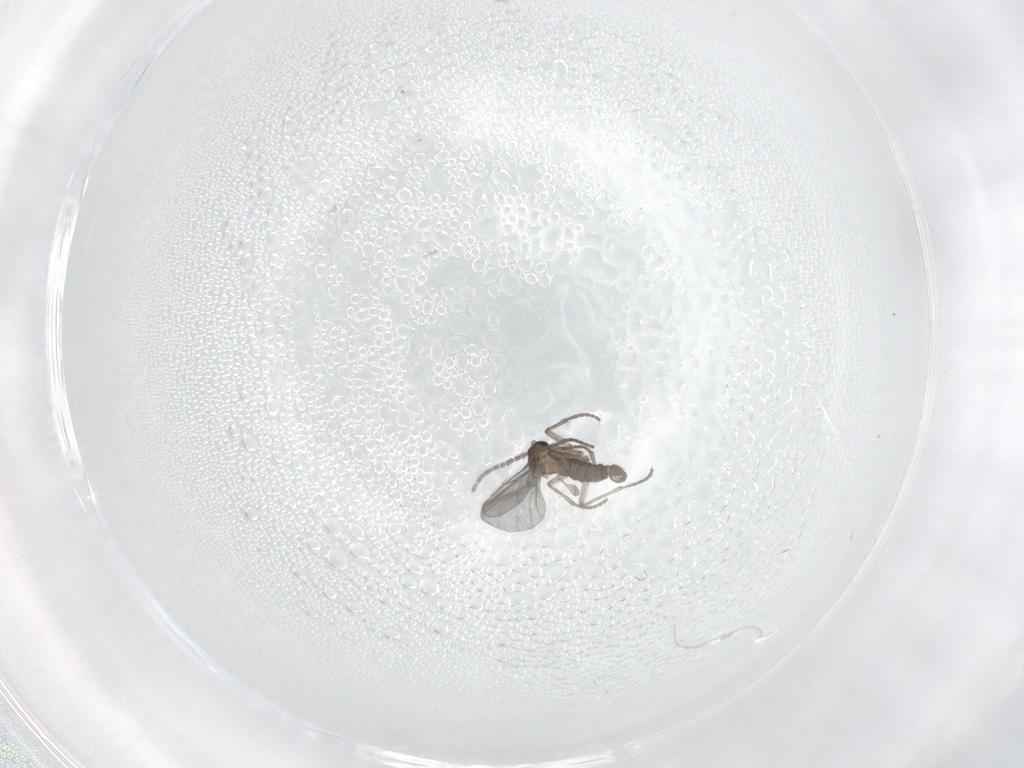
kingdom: Animalia
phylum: Arthropoda
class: Insecta
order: Diptera
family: Sciaridae
